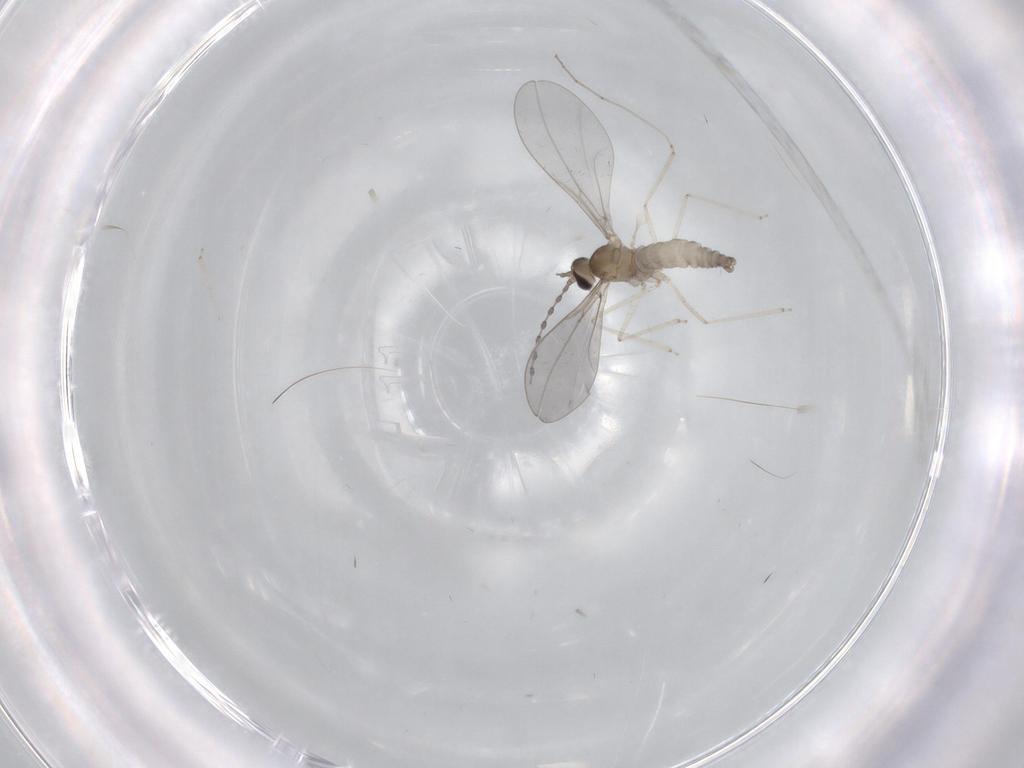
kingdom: Animalia
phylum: Arthropoda
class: Insecta
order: Diptera
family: Cecidomyiidae
